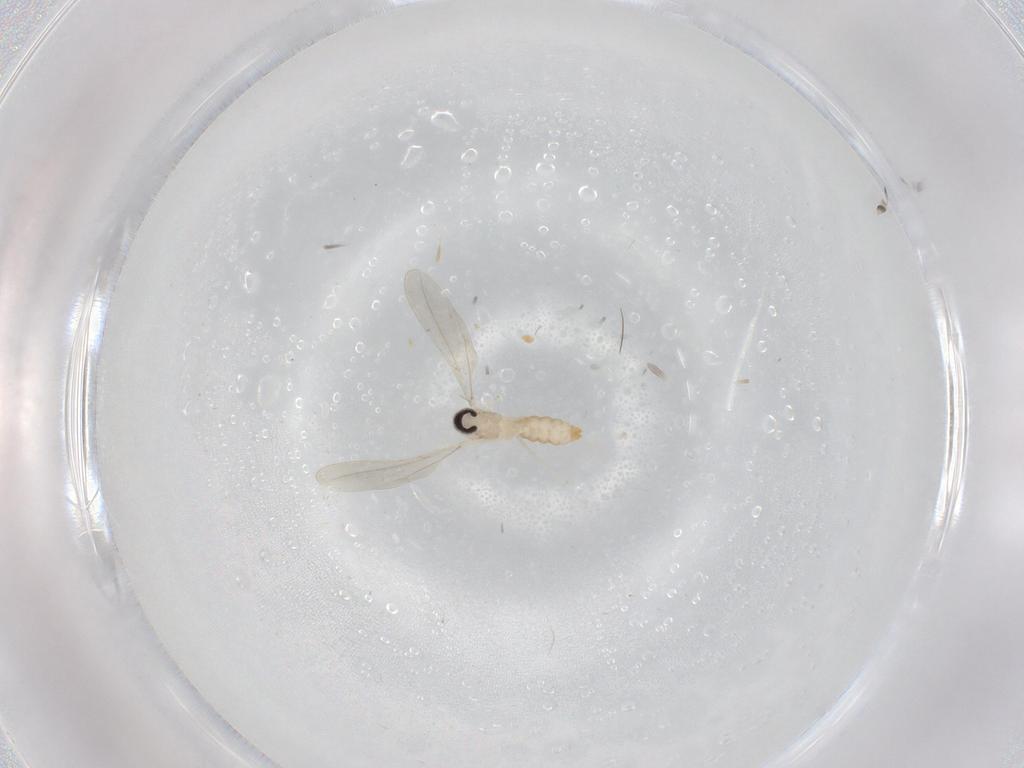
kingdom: Animalia
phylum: Arthropoda
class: Insecta
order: Diptera
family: Cecidomyiidae
